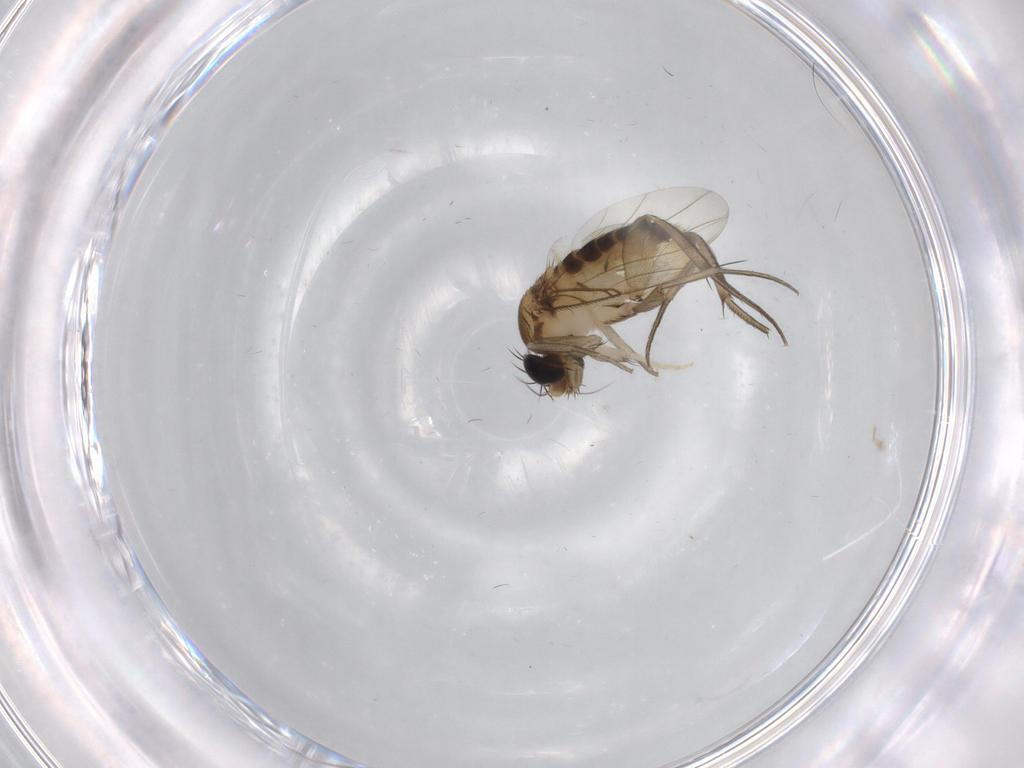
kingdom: Animalia
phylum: Arthropoda
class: Insecta
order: Diptera
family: Phoridae
